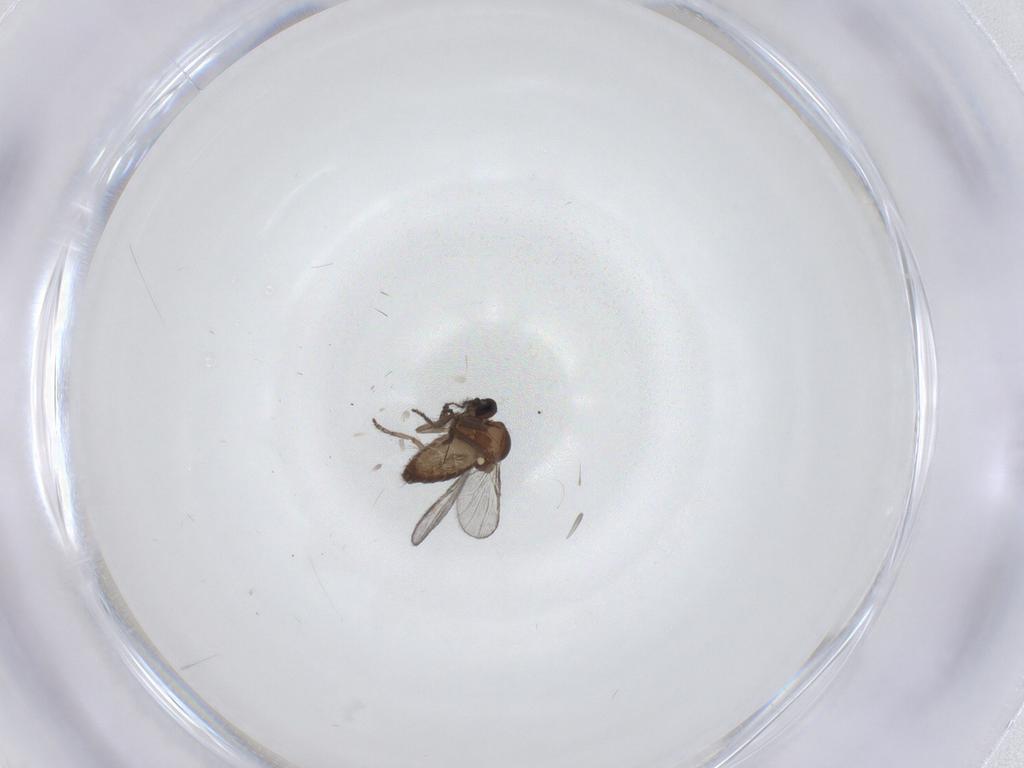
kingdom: Animalia
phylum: Arthropoda
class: Insecta
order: Diptera
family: Limoniidae
